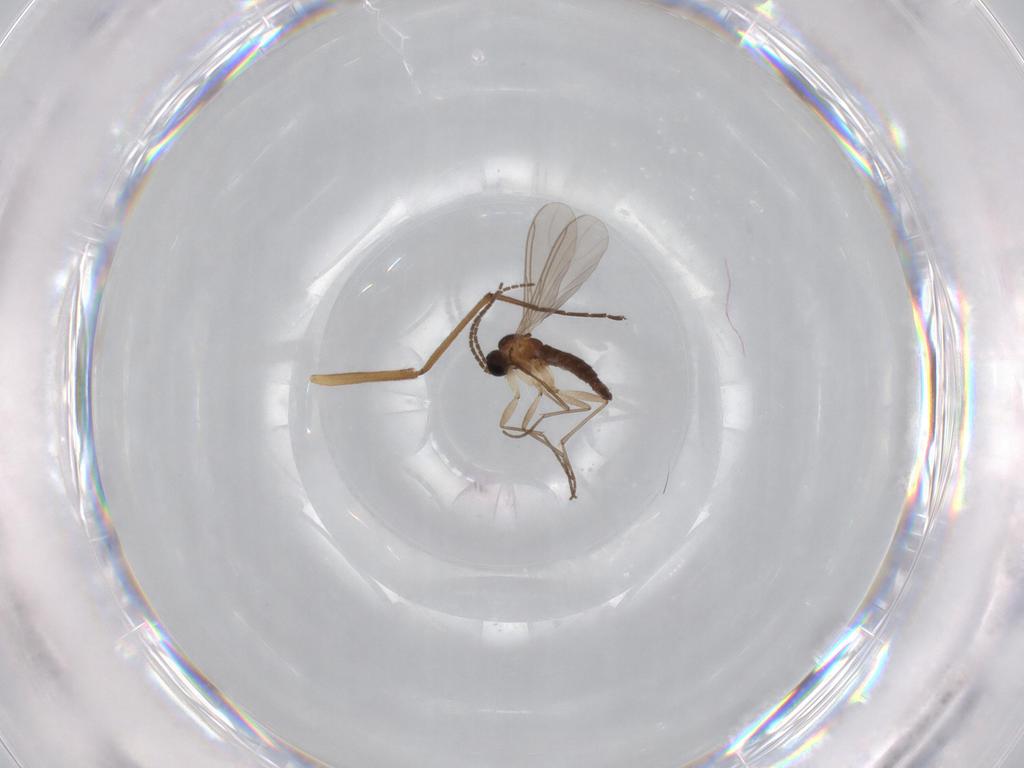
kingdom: Animalia
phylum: Arthropoda
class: Insecta
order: Diptera
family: Sciaridae
